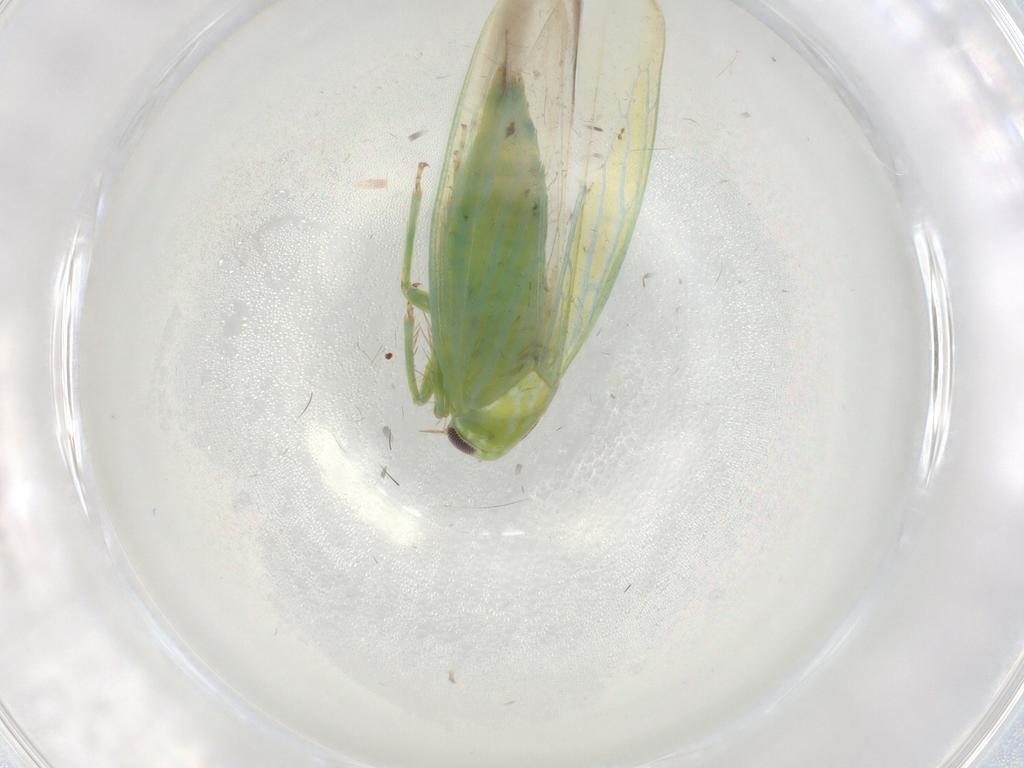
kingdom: Animalia
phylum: Arthropoda
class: Insecta
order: Hemiptera
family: Cicadellidae
